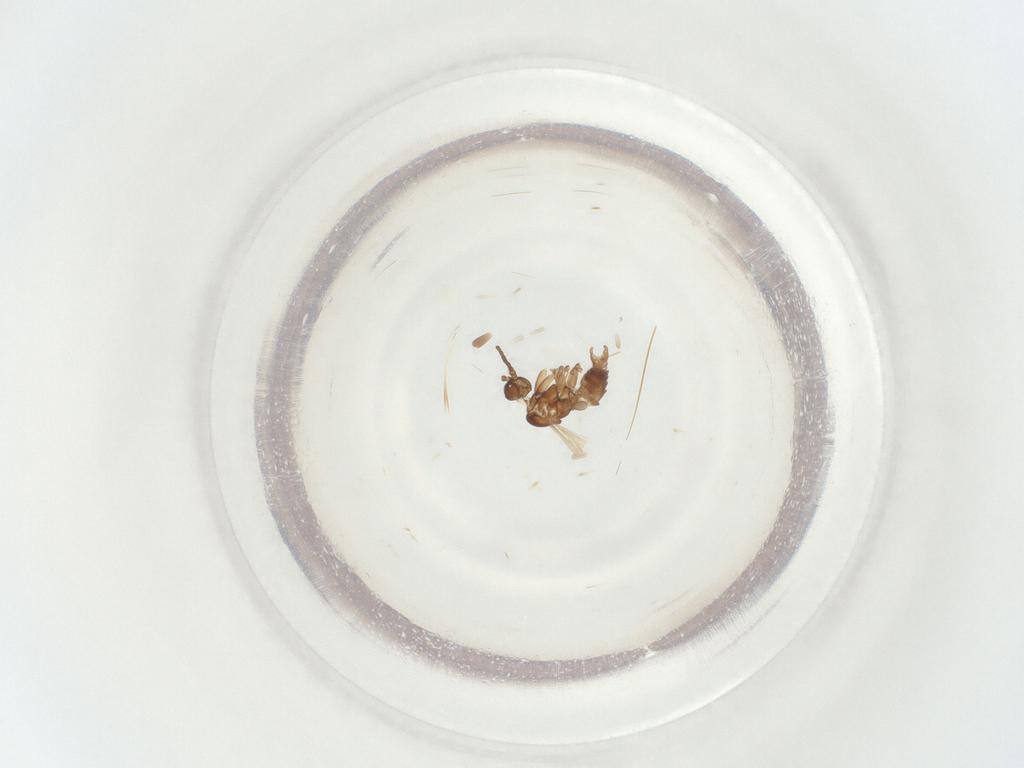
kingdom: Animalia
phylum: Arthropoda
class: Insecta
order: Diptera
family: Sciaridae
